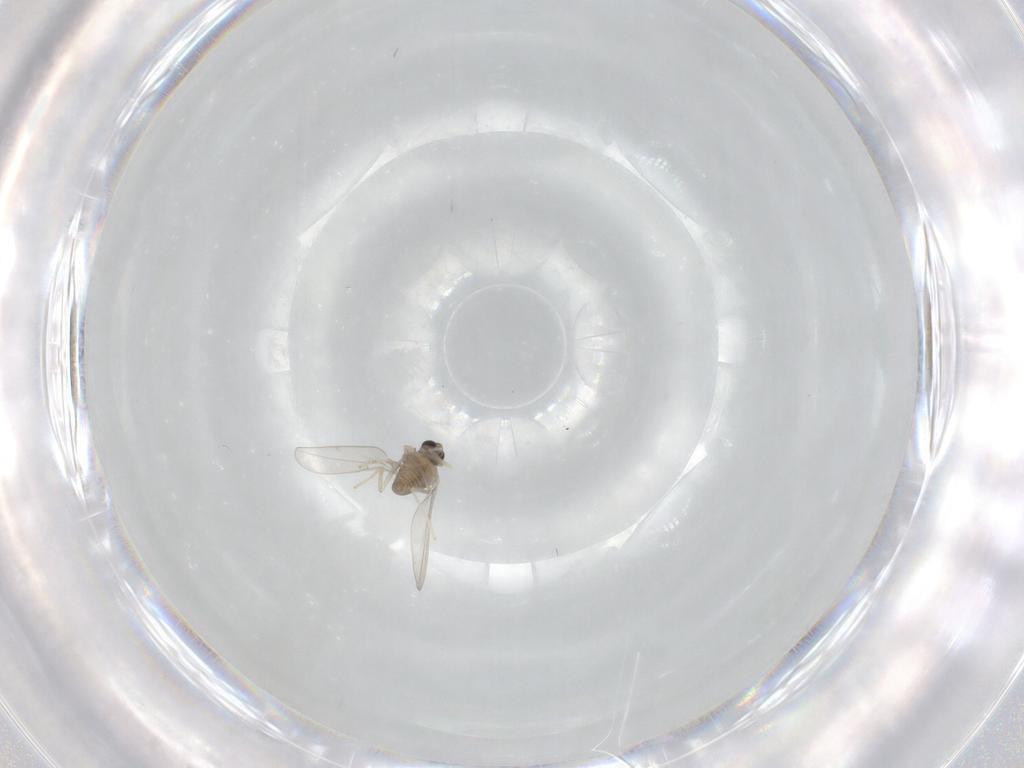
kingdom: Animalia
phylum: Arthropoda
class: Insecta
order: Diptera
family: Cecidomyiidae
